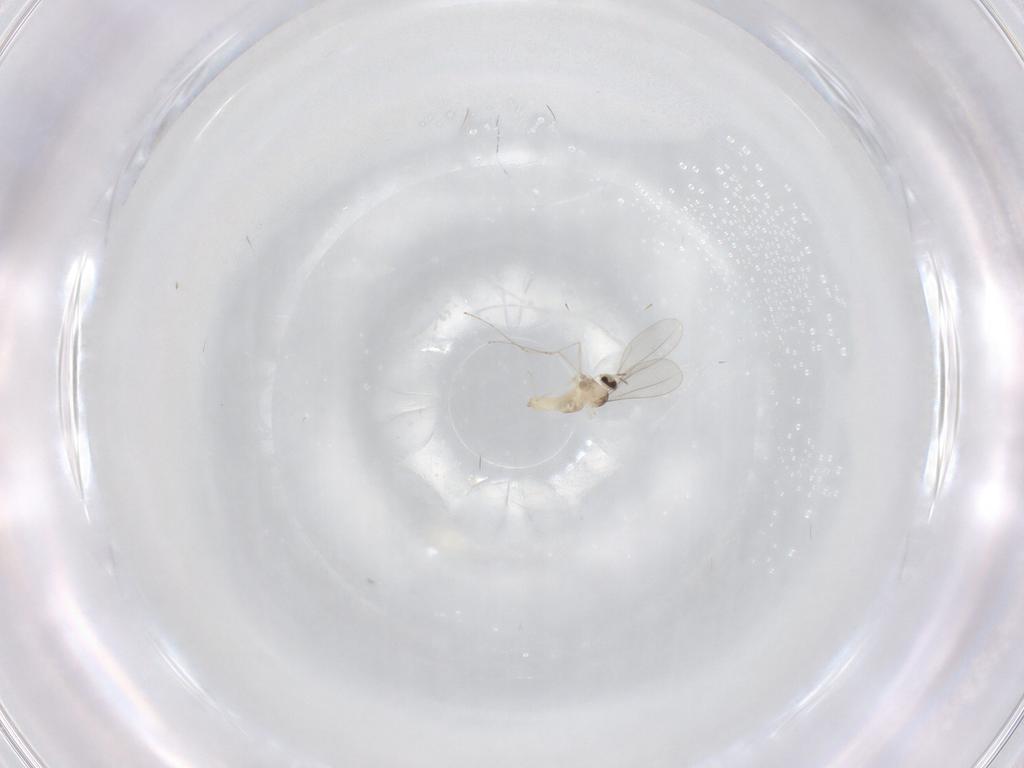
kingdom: Animalia
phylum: Arthropoda
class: Insecta
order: Diptera
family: Cecidomyiidae
